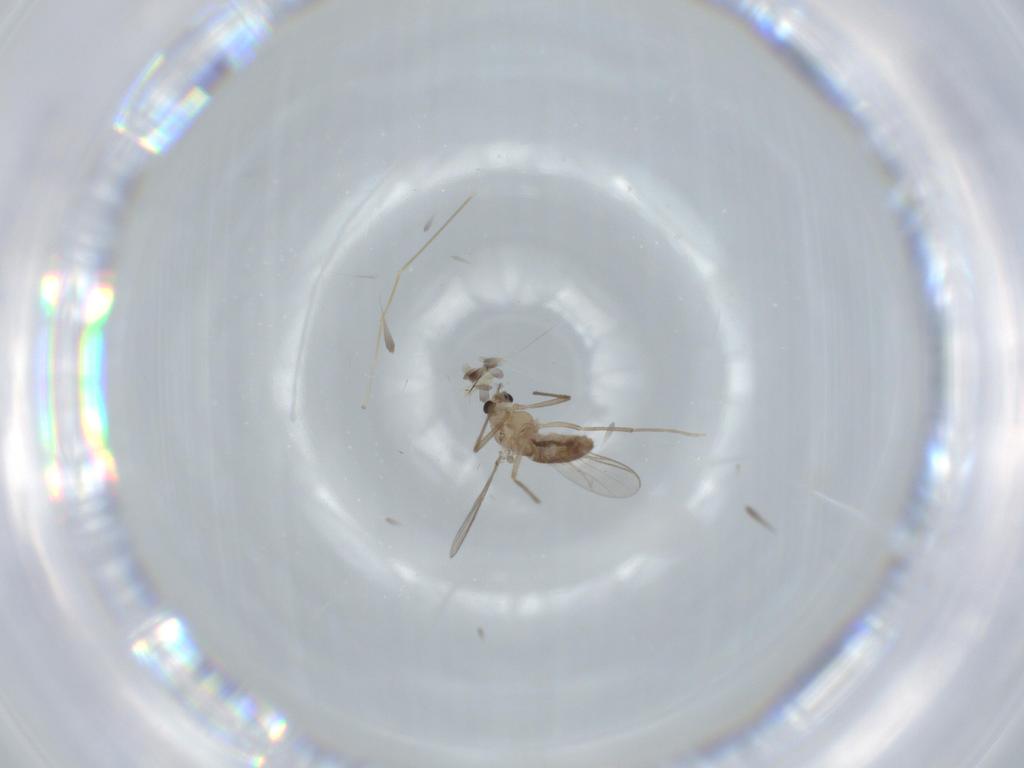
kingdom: Animalia
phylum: Arthropoda
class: Insecta
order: Diptera
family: Chironomidae
